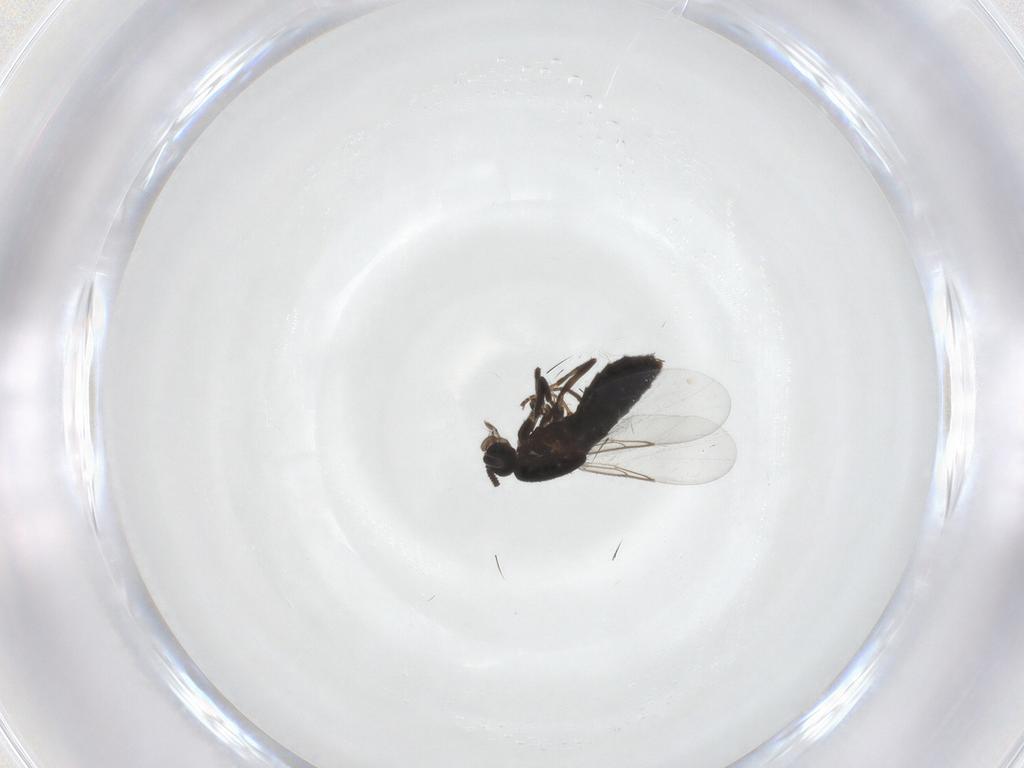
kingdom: Animalia
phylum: Arthropoda
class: Insecta
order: Diptera
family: Scatopsidae
